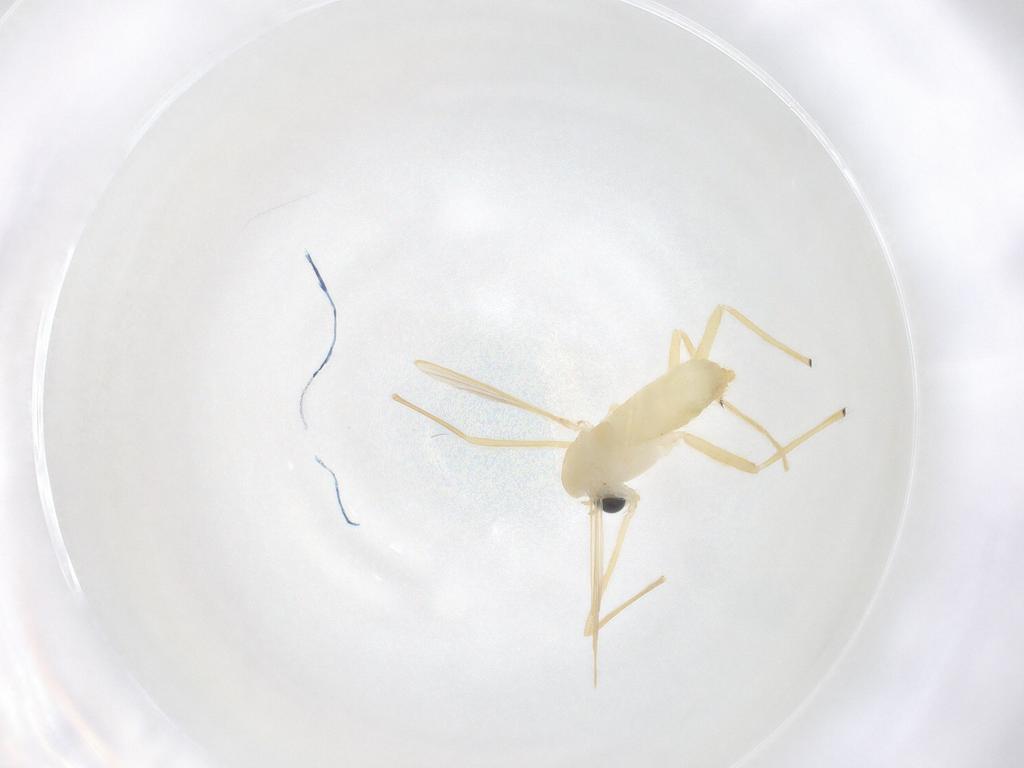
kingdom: Animalia
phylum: Arthropoda
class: Insecta
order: Diptera
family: Chironomidae
